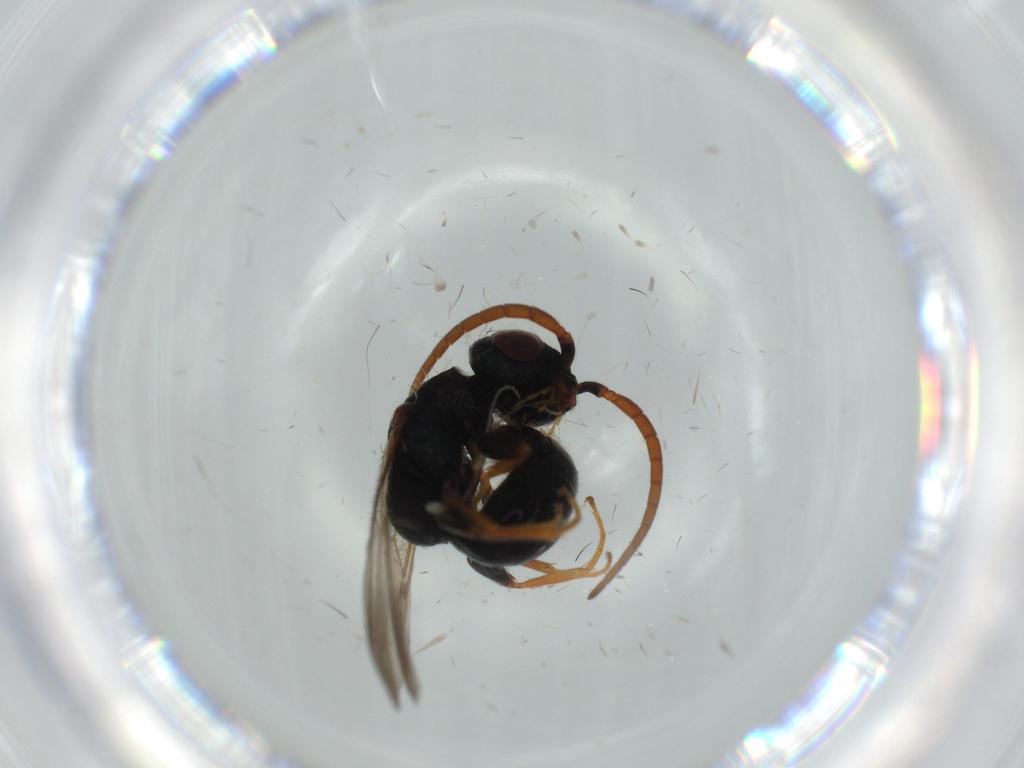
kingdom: Animalia
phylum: Arthropoda
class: Insecta
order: Hymenoptera
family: Bethylidae
